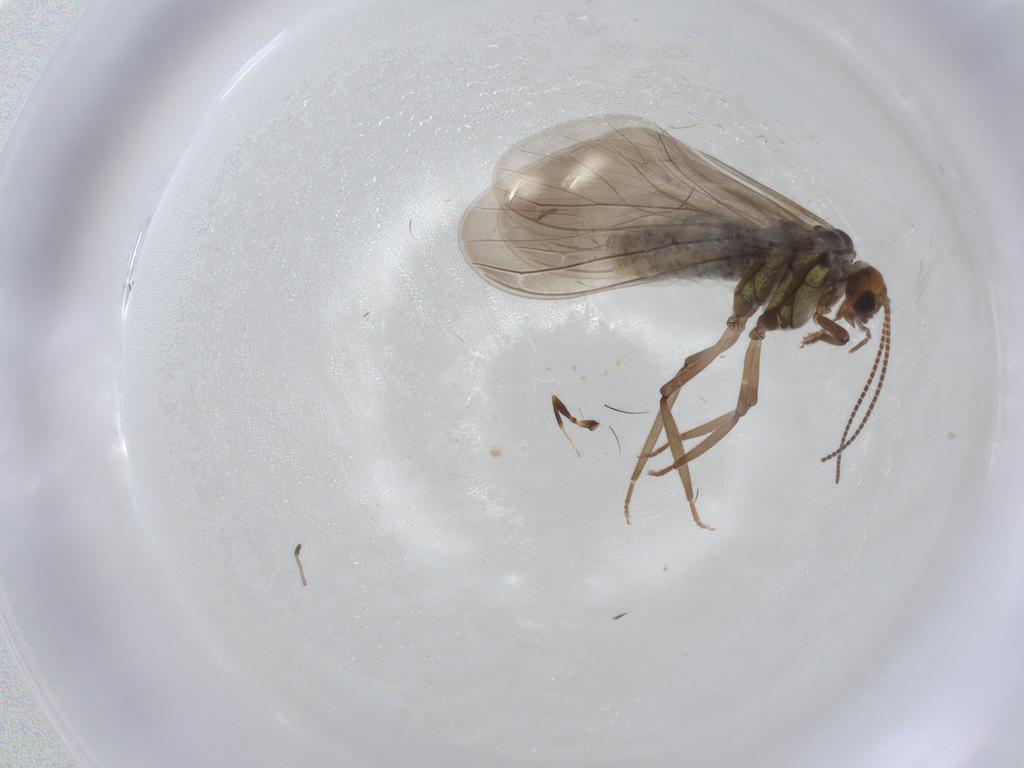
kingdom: Animalia
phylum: Arthropoda
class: Insecta
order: Neuroptera
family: Coniopterygidae
